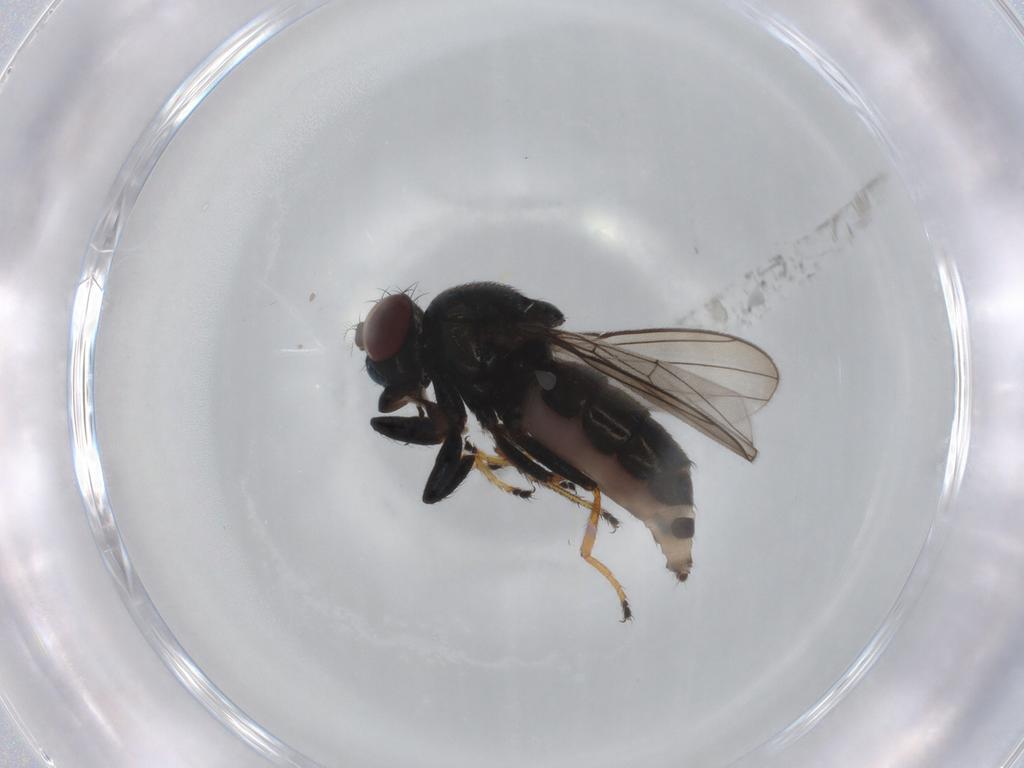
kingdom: Animalia
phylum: Arthropoda
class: Insecta
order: Diptera
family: Ephydridae
